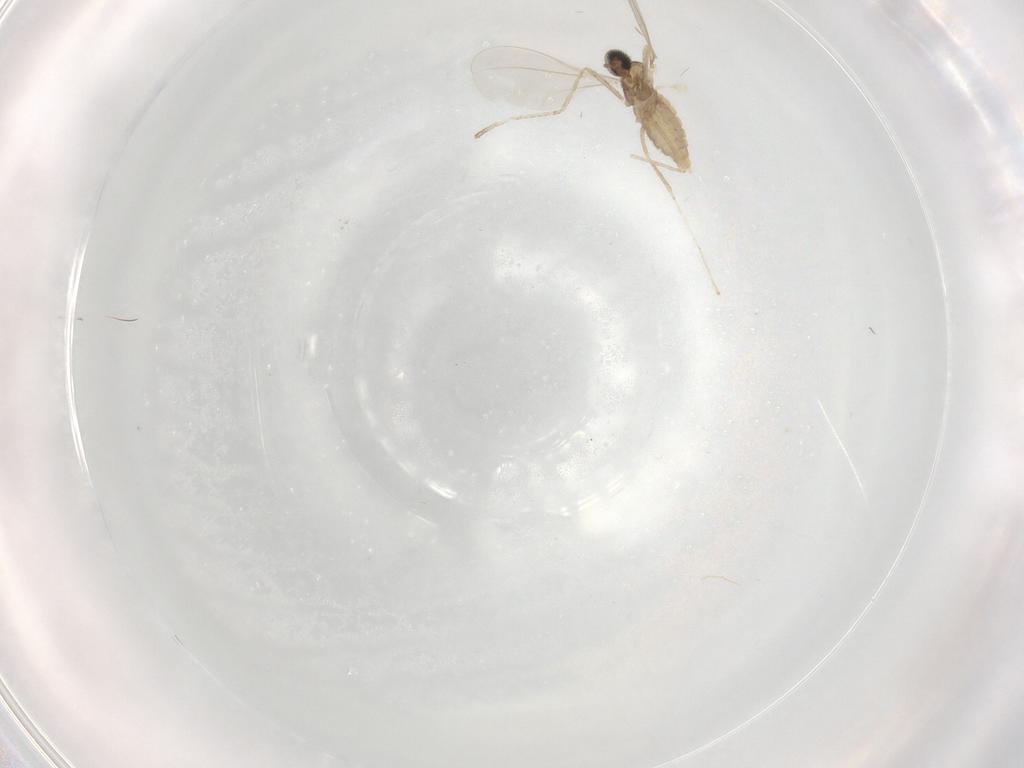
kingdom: Animalia
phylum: Arthropoda
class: Insecta
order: Diptera
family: Cecidomyiidae
